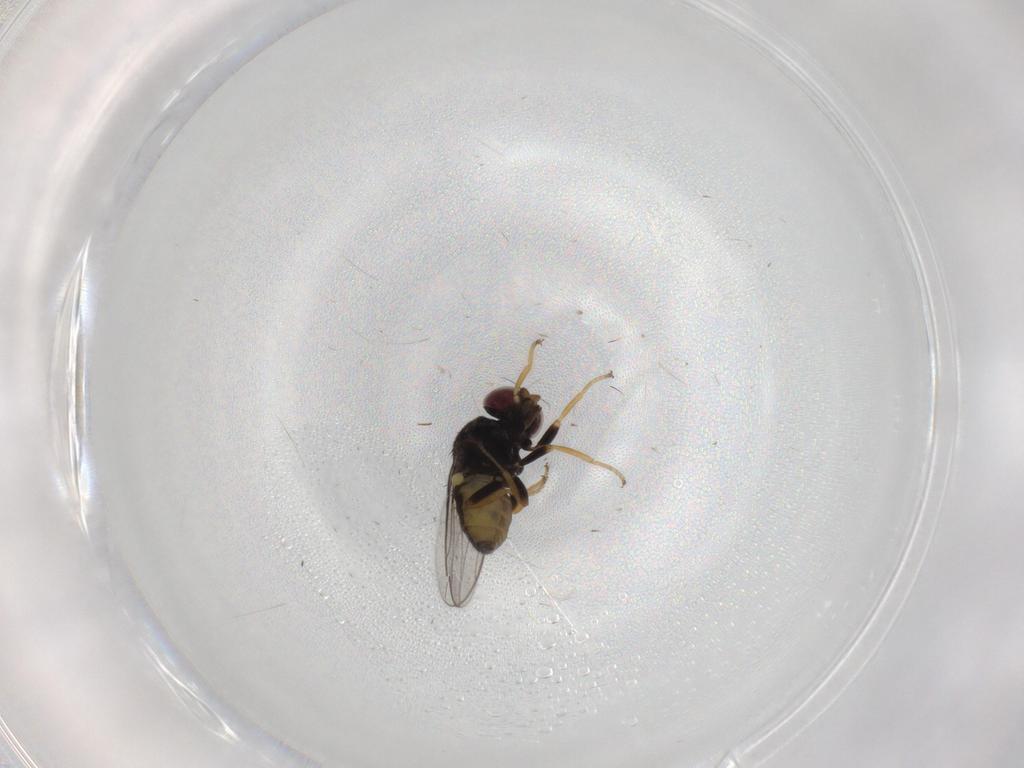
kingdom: Animalia
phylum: Arthropoda
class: Insecta
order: Diptera
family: Chloropidae
